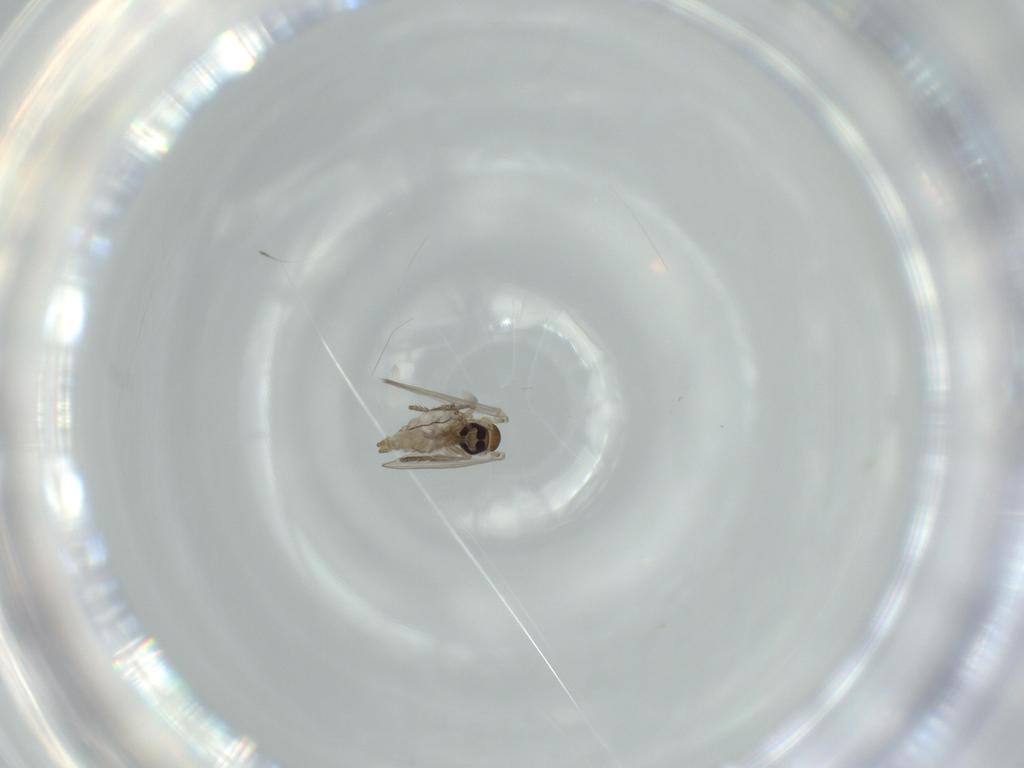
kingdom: Animalia
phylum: Arthropoda
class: Insecta
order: Diptera
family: Psychodidae
